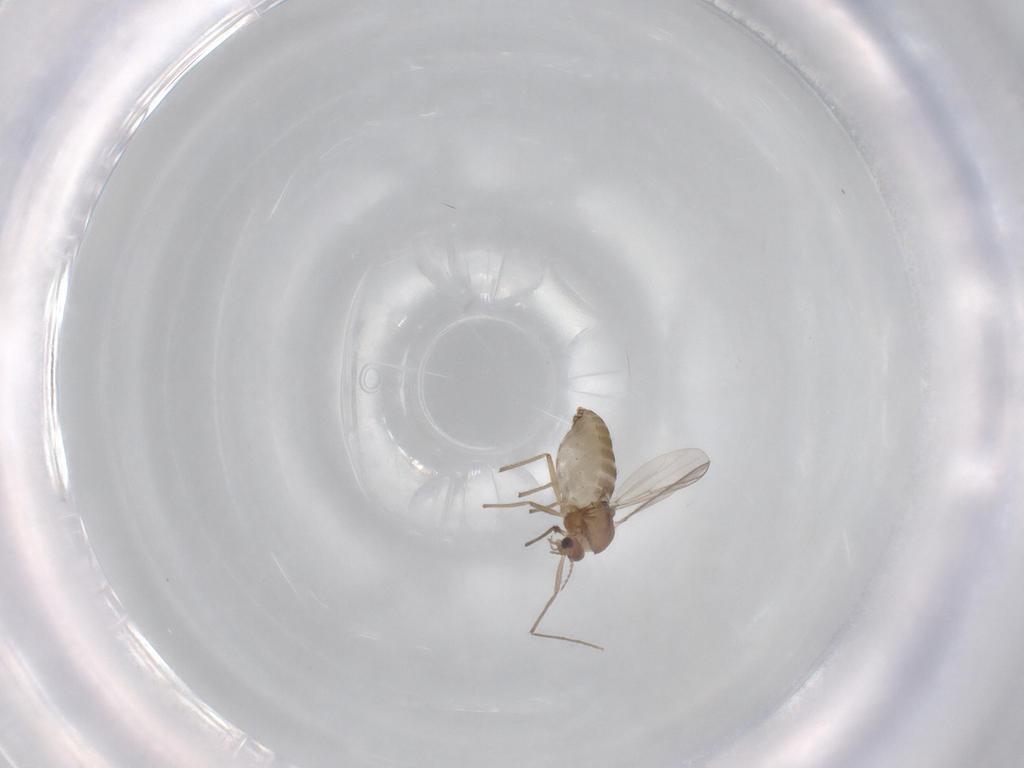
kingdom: Animalia
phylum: Arthropoda
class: Insecta
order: Diptera
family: Chironomidae
